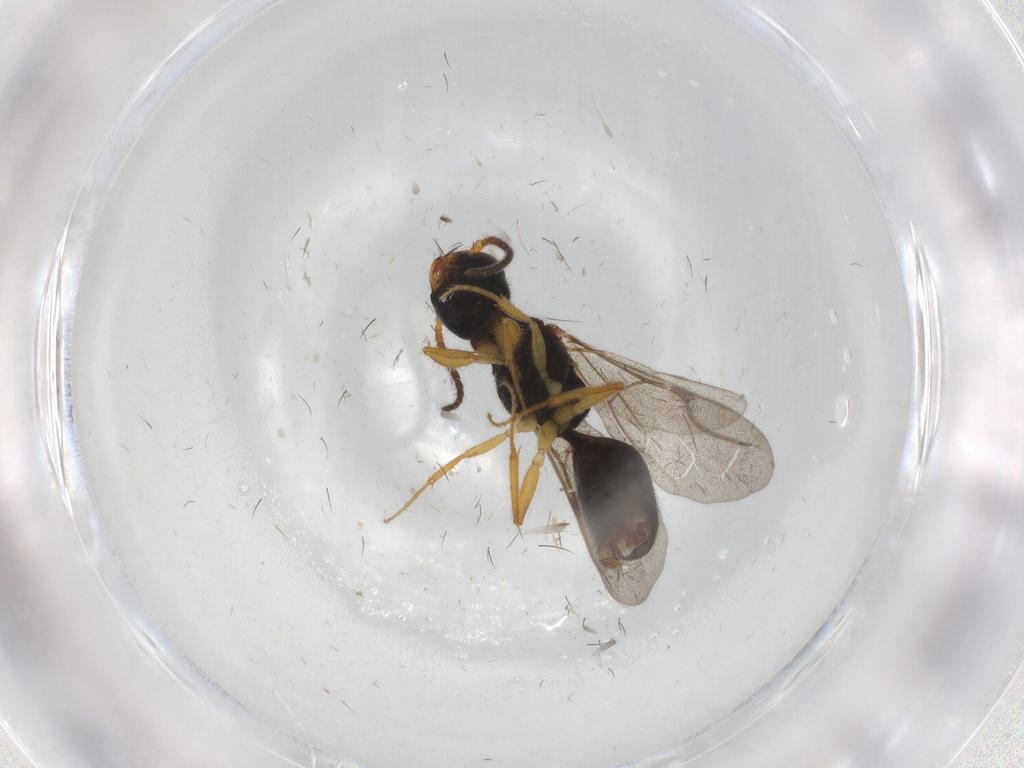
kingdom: Animalia
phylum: Arthropoda
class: Insecta
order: Hymenoptera
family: Bethylidae
